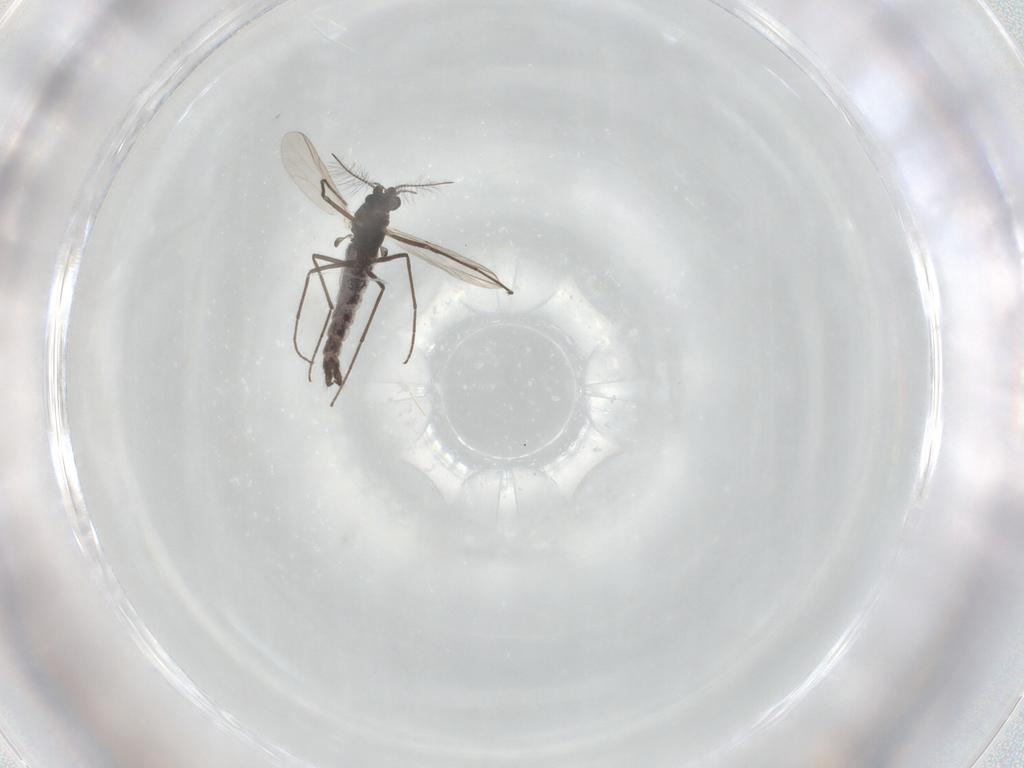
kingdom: Animalia
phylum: Arthropoda
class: Insecta
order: Diptera
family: Chironomidae
